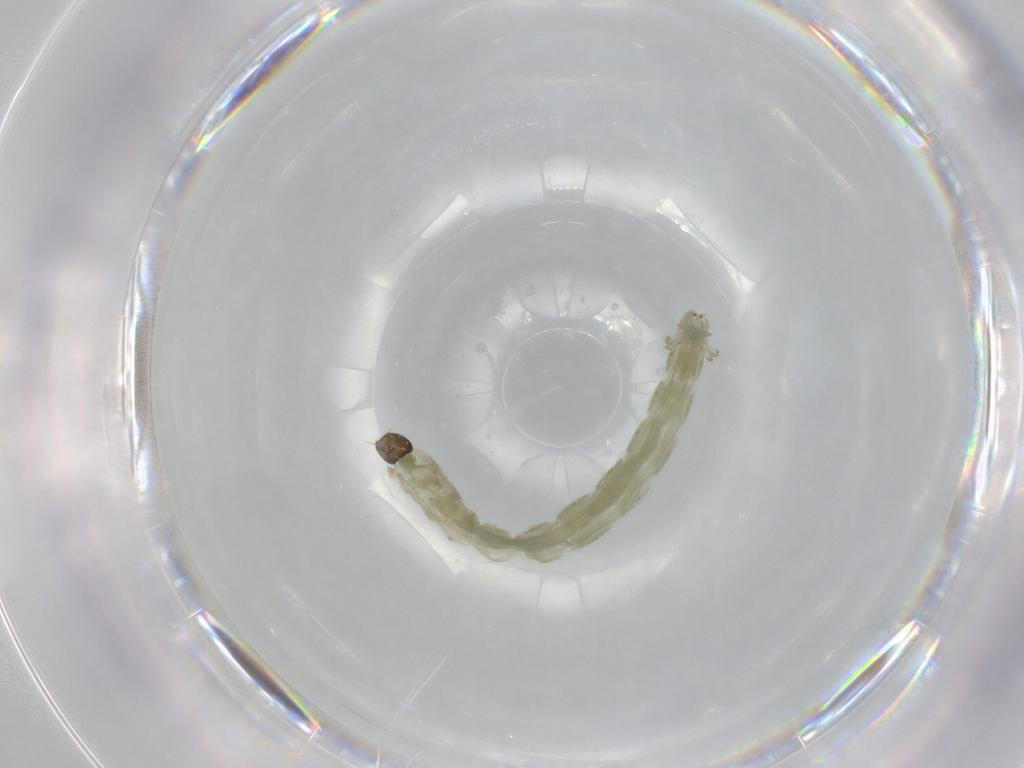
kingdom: Animalia
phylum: Arthropoda
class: Insecta
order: Diptera
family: Chironomidae
